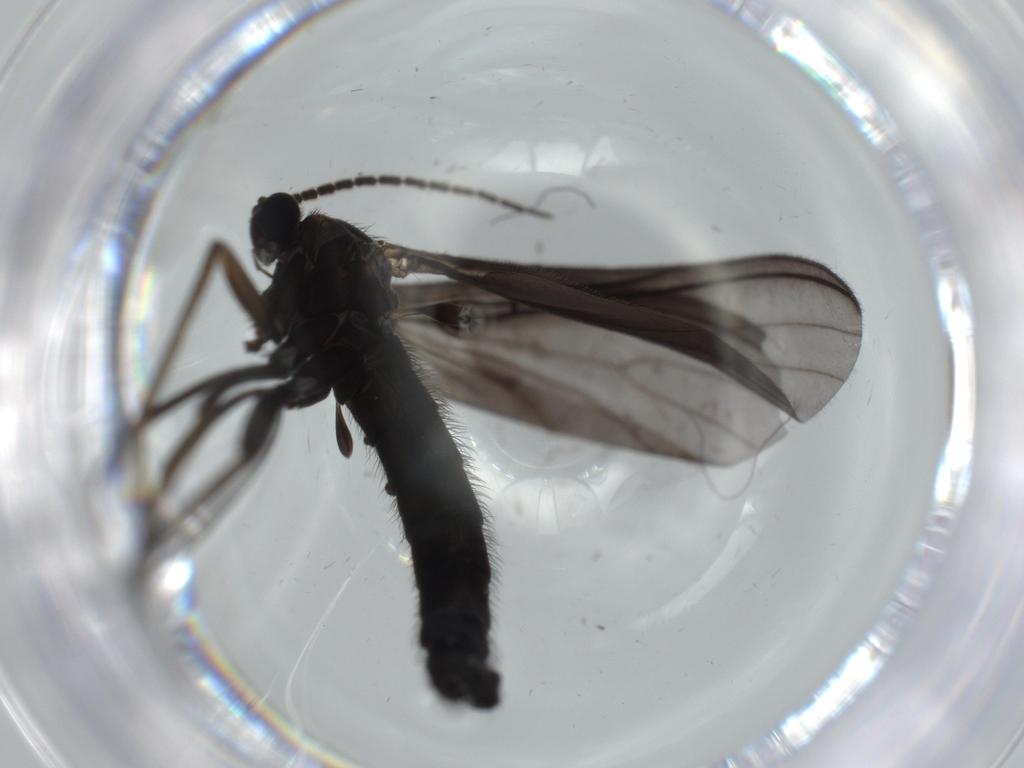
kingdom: Animalia
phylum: Arthropoda
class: Insecta
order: Diptera
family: Sciaridae
